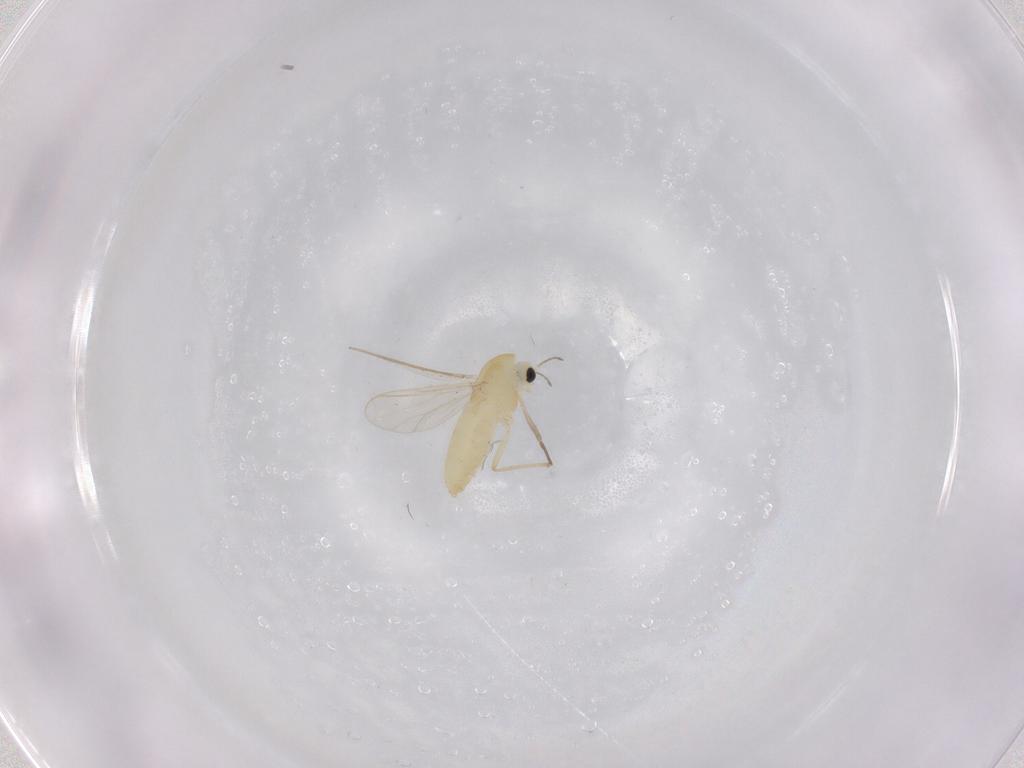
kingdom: Animalia
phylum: Arthropoda
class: Insecta
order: Diptera
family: Chironomidae
